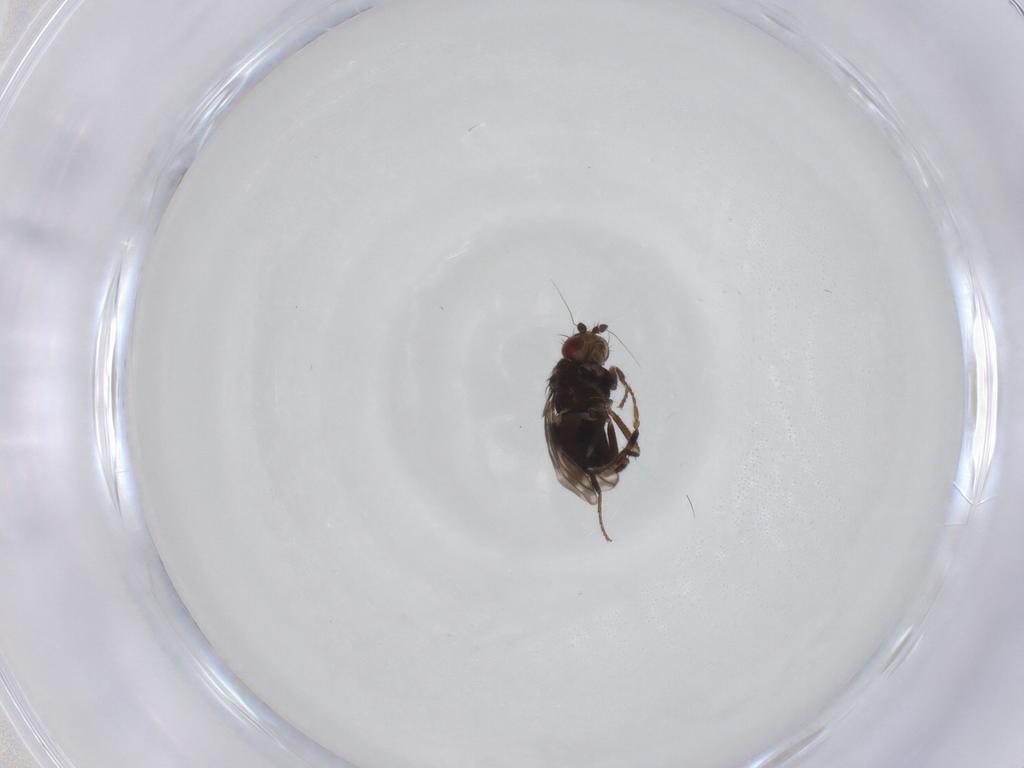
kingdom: Animalia
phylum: Arthropoda
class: Insecta
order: Diptera
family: Sphaeroceridae
